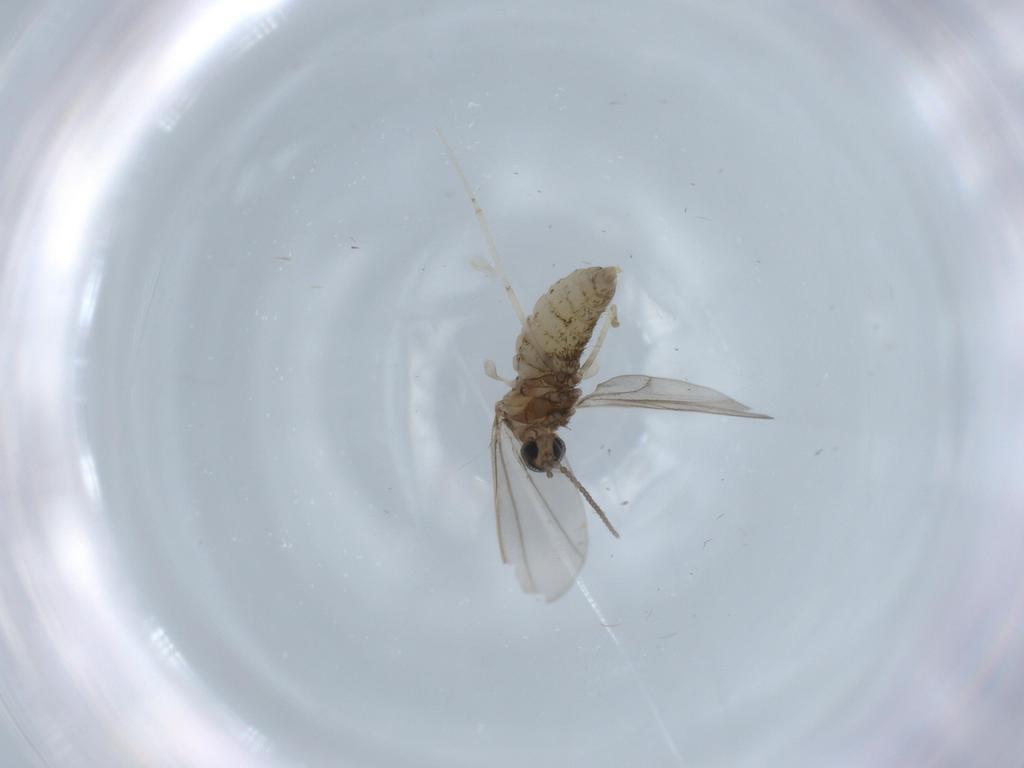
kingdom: Animalia
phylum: Arthropoda
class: Insecta
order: Diptera
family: Cecidomyiidae
